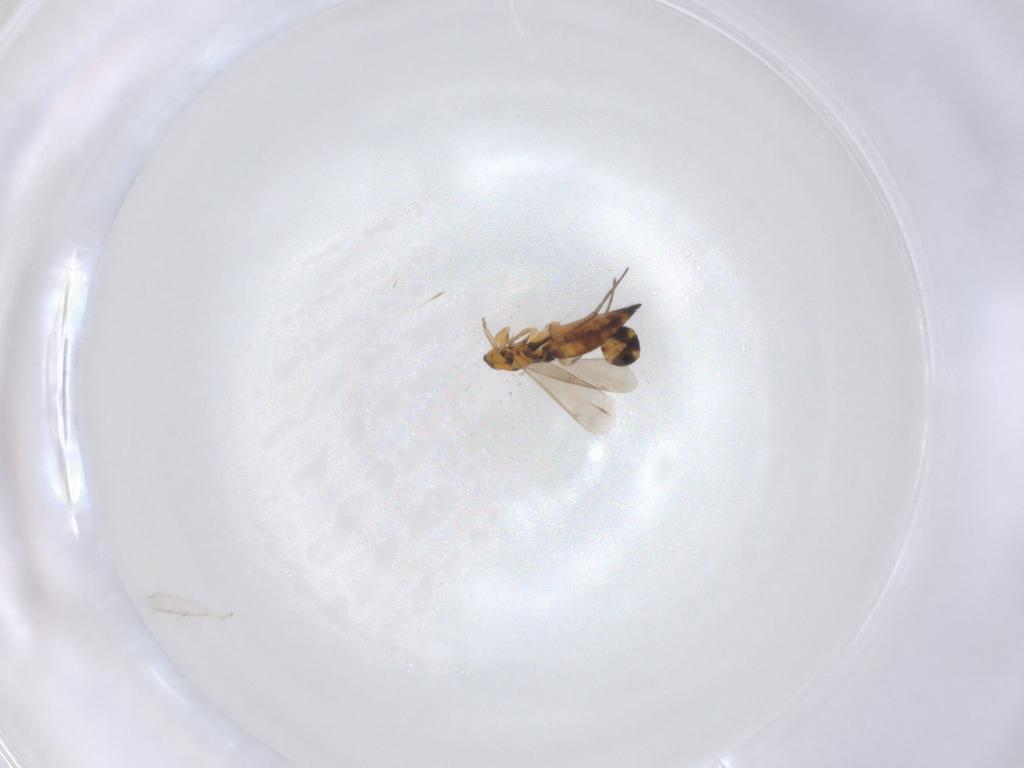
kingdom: Animalia
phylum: Arthropoda
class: Insecta
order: Hymenoptera
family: Eulophidae
